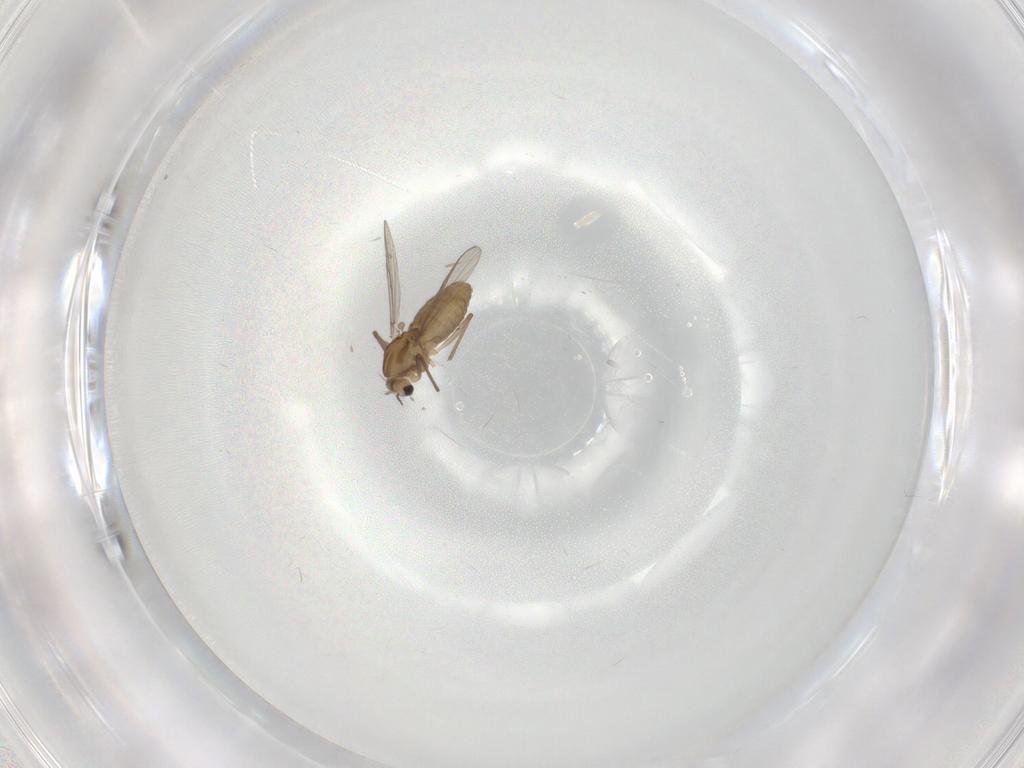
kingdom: Animalia
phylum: Arthropoda
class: Insecta
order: Diptera
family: Chironomidae
